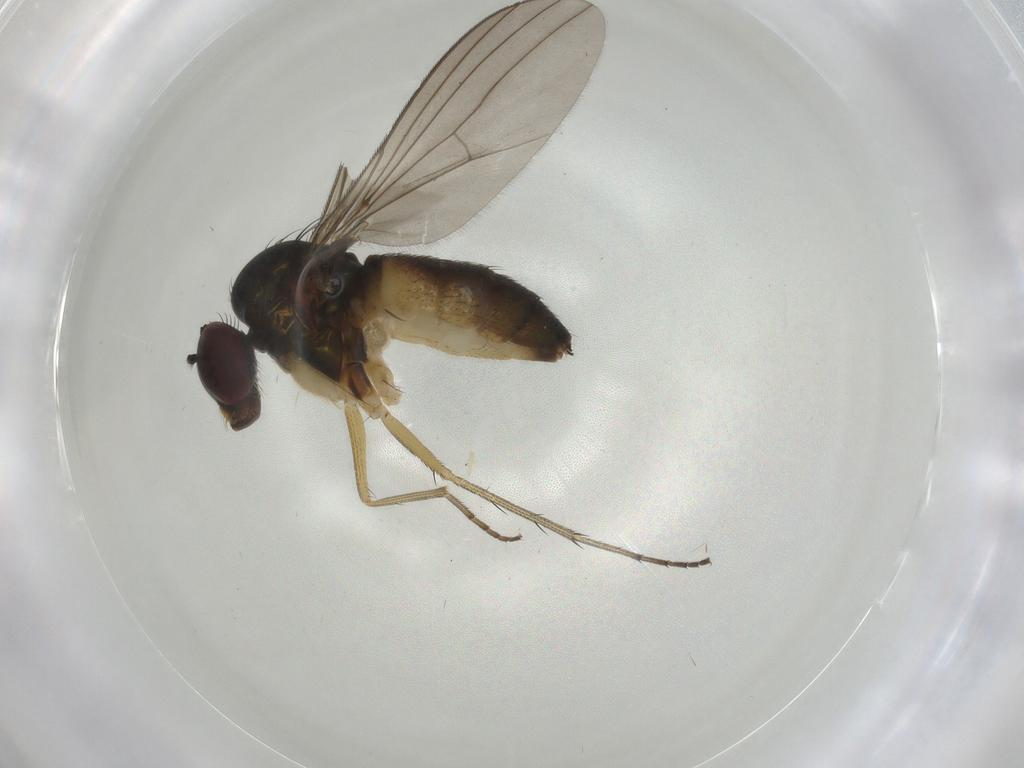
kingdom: Animalia
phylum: Arthropoda
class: Insecta
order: Diptera
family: Dolichopodidae
